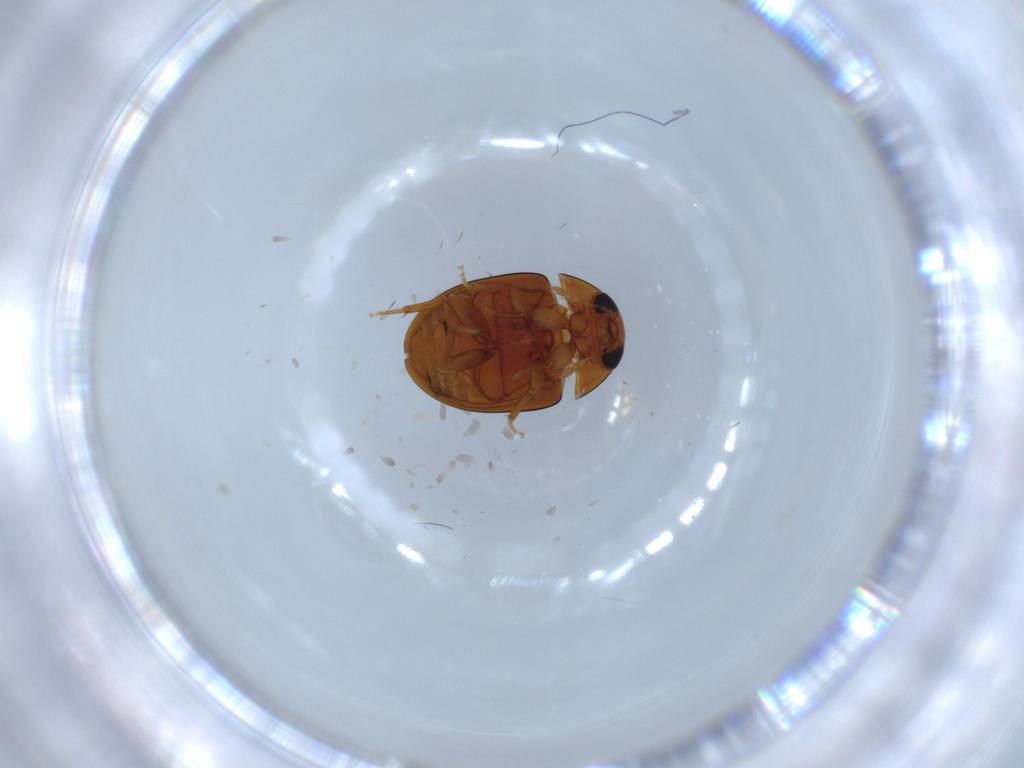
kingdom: Animalia
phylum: Arthropoda
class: Insecta
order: Coleoptera
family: Phalacridae
